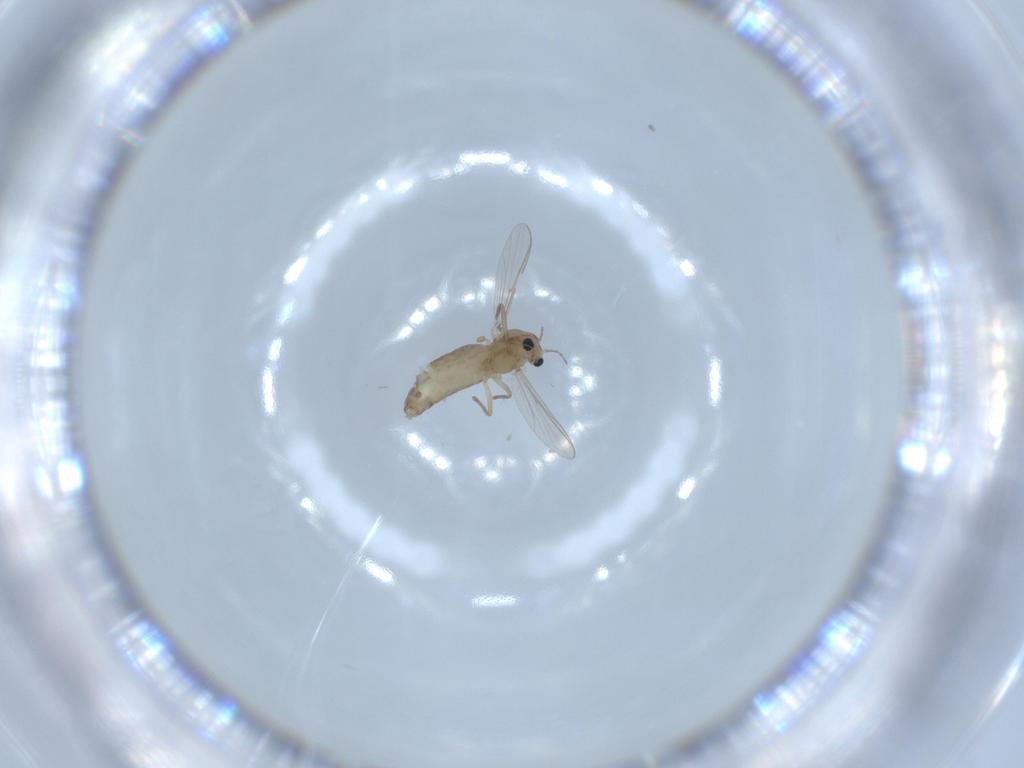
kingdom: Animalia
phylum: Arthropoda
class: Insecta
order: Diptera
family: Chironomidae
